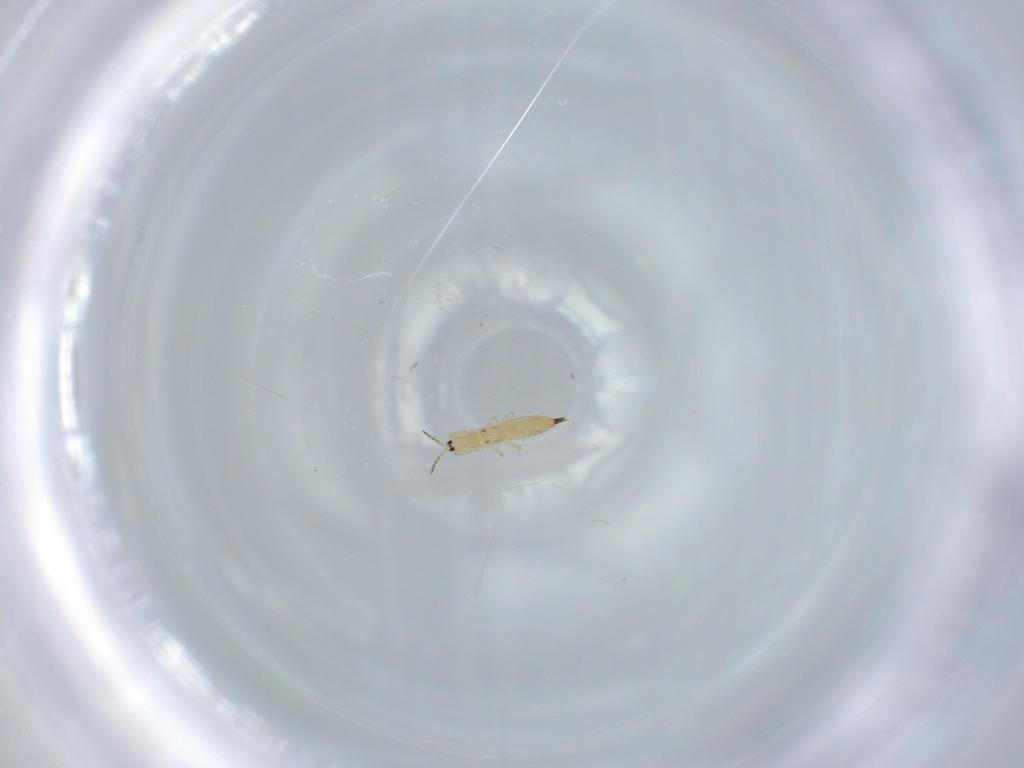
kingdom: Animalia
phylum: Arthropoda
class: Insecta
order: Thysanoptera
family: Phlaeothripidae
